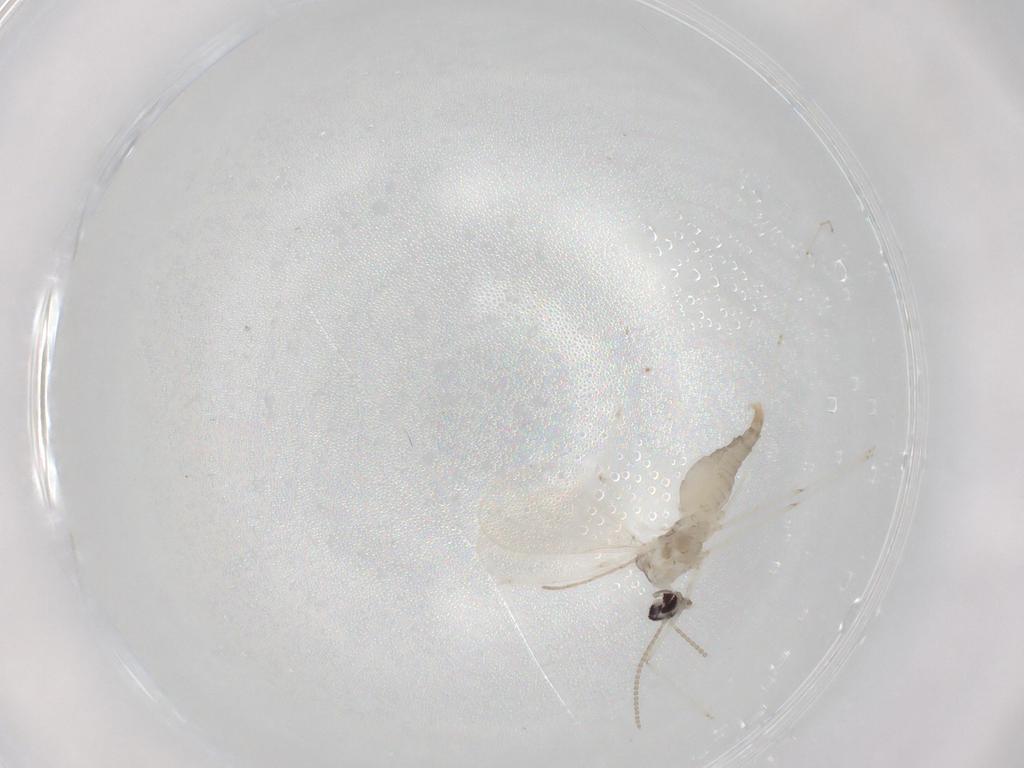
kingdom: Animalia
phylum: Arthropoda
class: Insecta
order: Diptera
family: Cecidomyiidae
